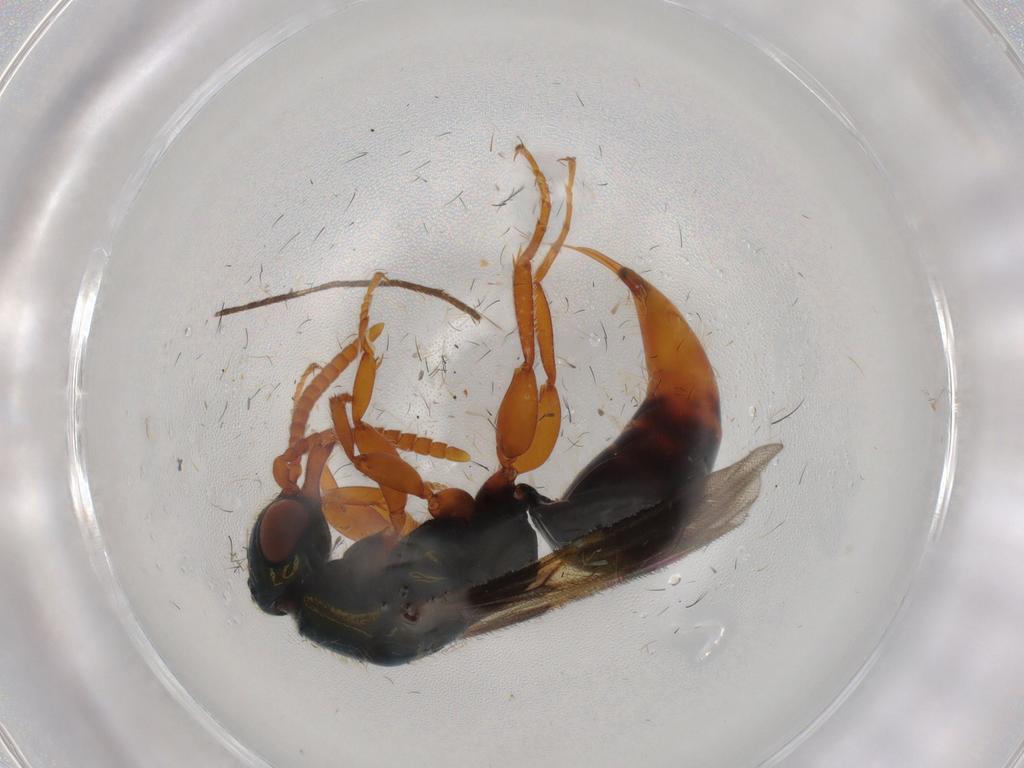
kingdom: Animalia
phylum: Arthropoda
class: Insecta
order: Hymenoptera
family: Bethylidae
